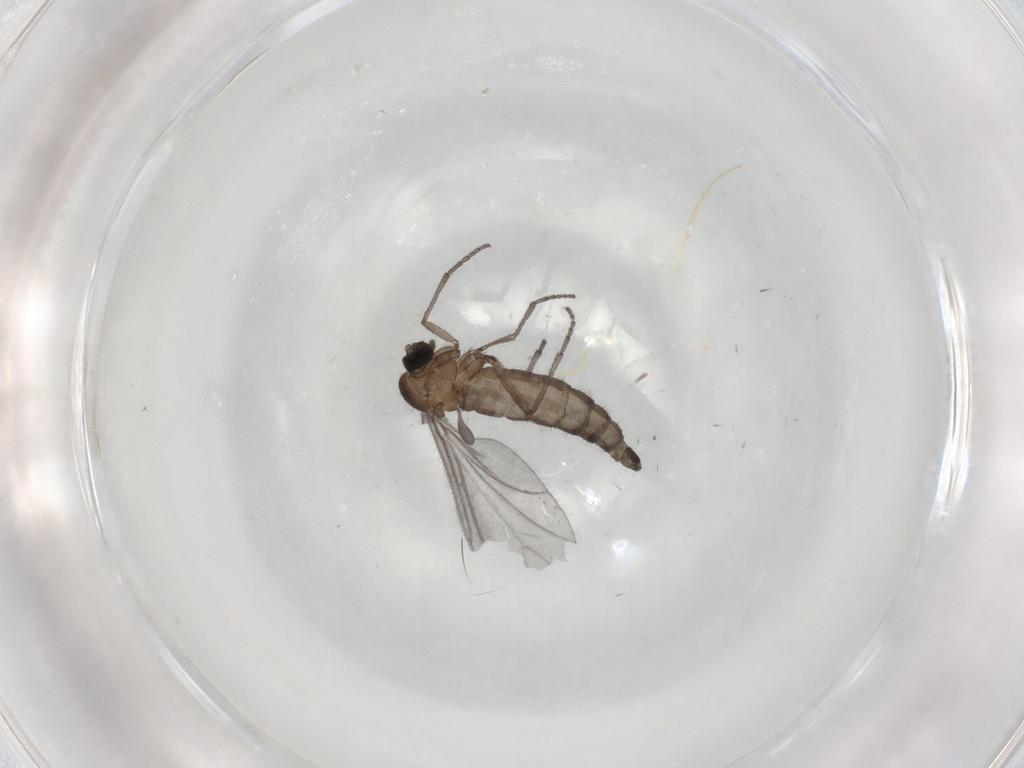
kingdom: Animalia
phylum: Arthropoda
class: Insecta
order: Diptera
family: Sciaridae
